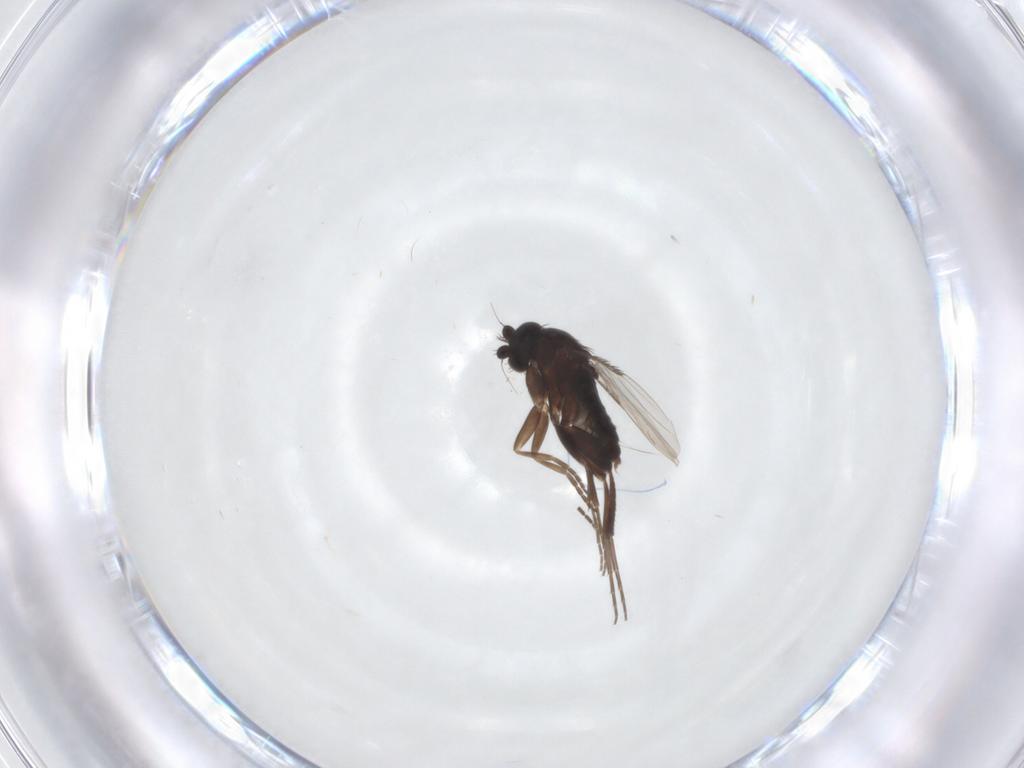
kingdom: Animalia
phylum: Arthropoda
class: Insecta
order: Diptera
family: Phoridae
